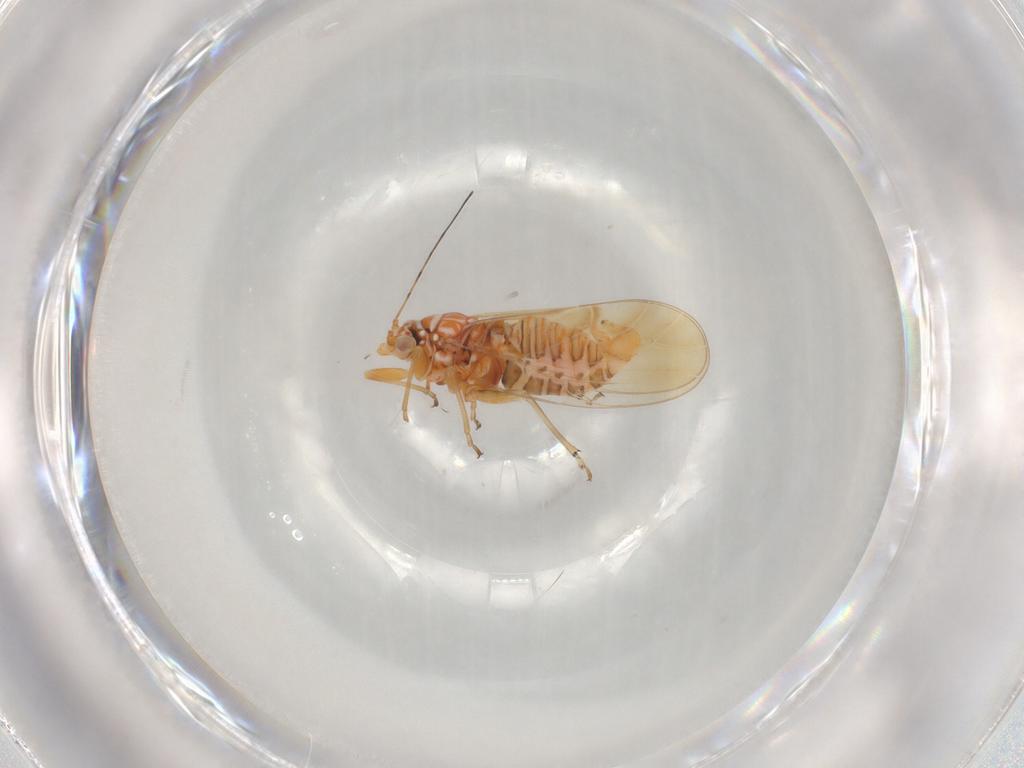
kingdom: Animalia
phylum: Arthropoda
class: Insecta
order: Hemiptera
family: Psyllidae
